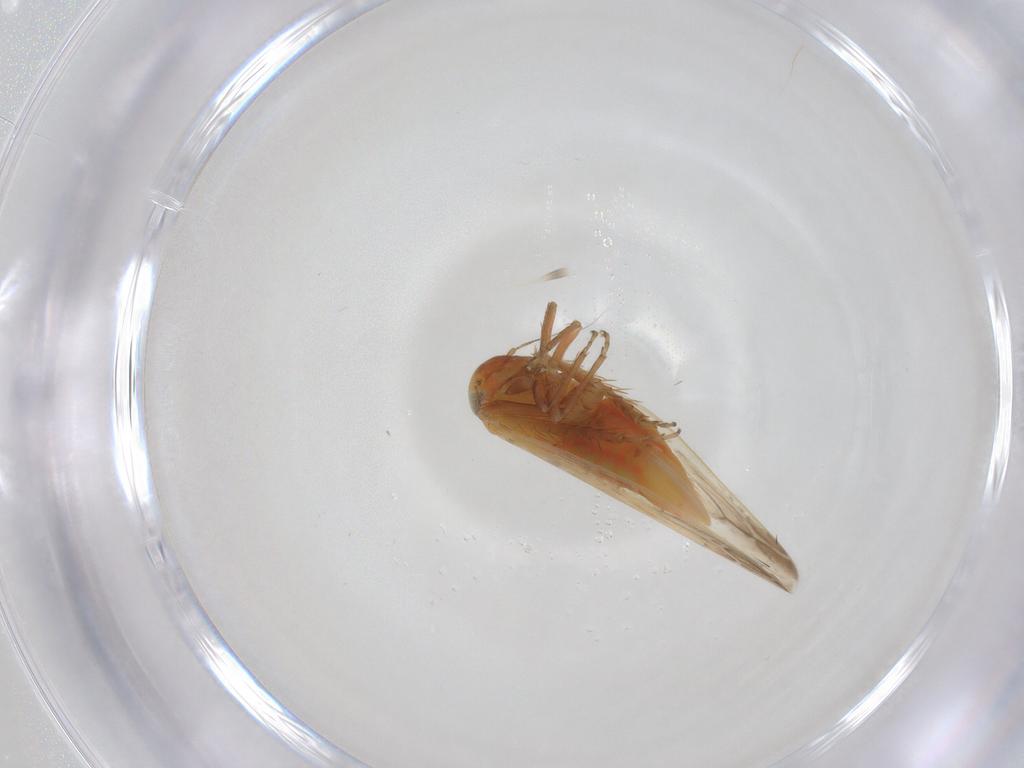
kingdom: Animalia
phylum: Arthropoda
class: Insecta
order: Hemiptera
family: Cicadellidae
